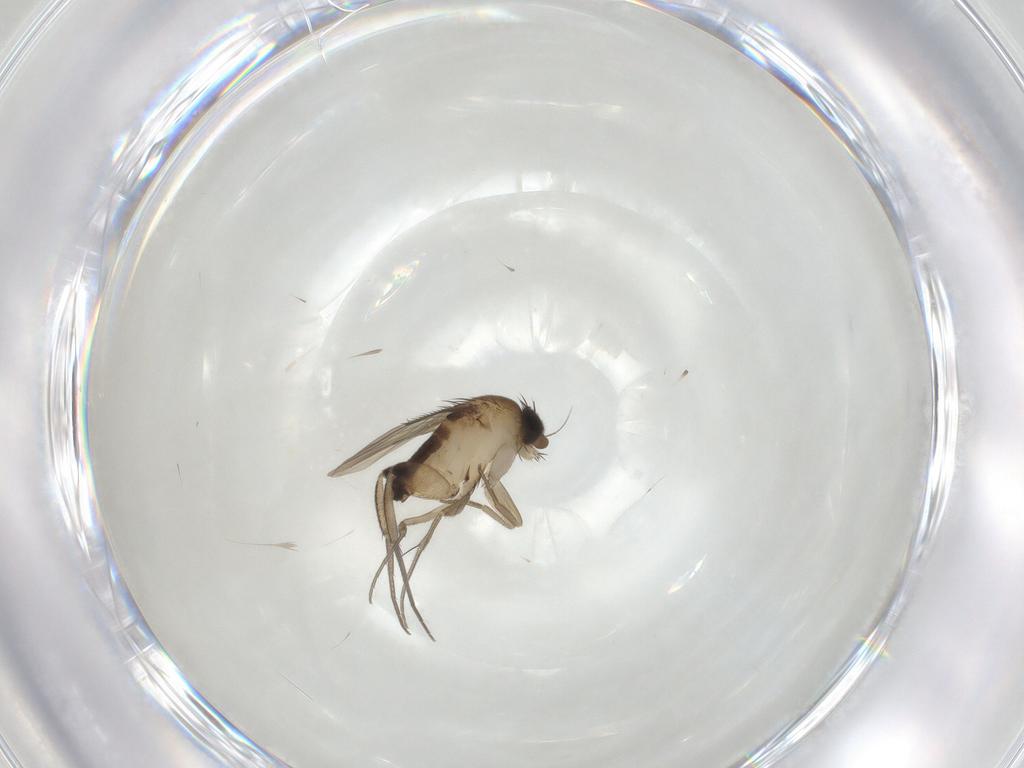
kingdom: Animalia
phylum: Arthropoda
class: Insecta
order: Diptera
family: Phoridae
